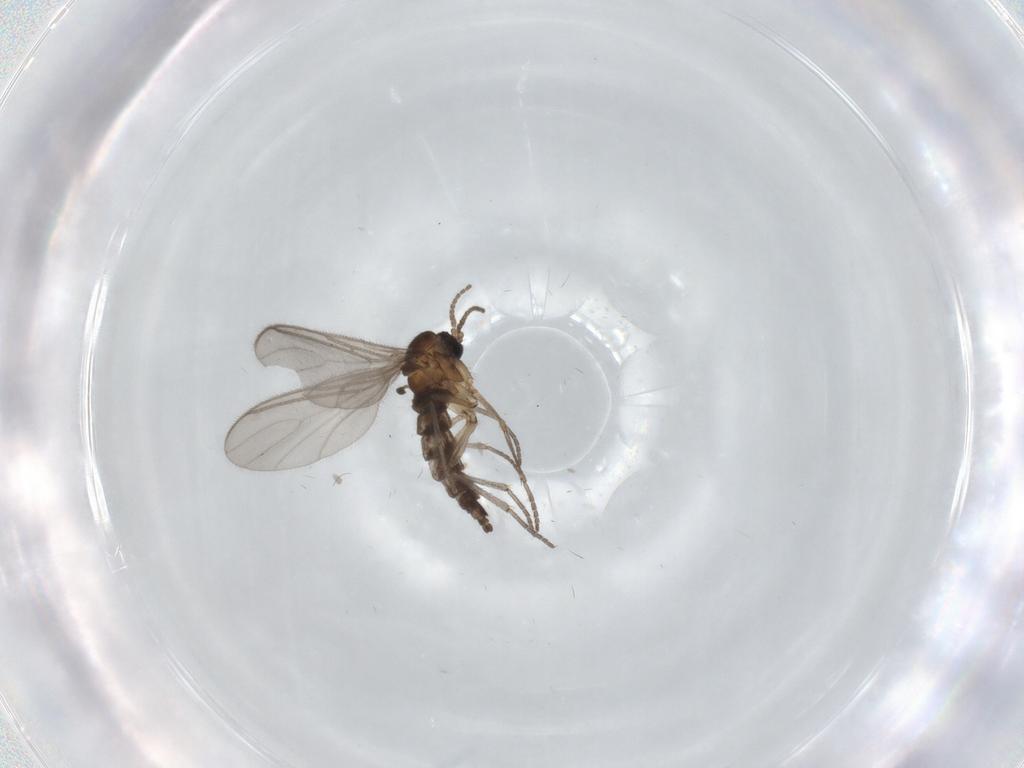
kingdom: Animalia
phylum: Arthropoda
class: Insecta
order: Diptera
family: Sciaridae
